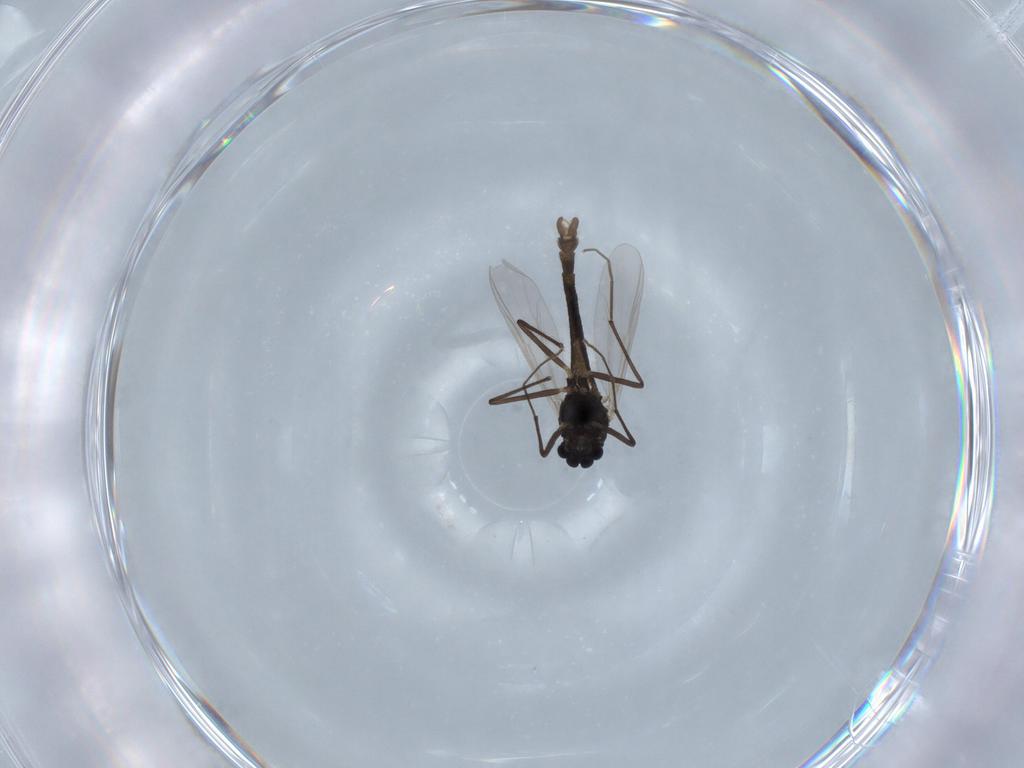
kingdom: Animalia
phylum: Arthropoda
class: Insecta
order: Diptera
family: Chironomidae
